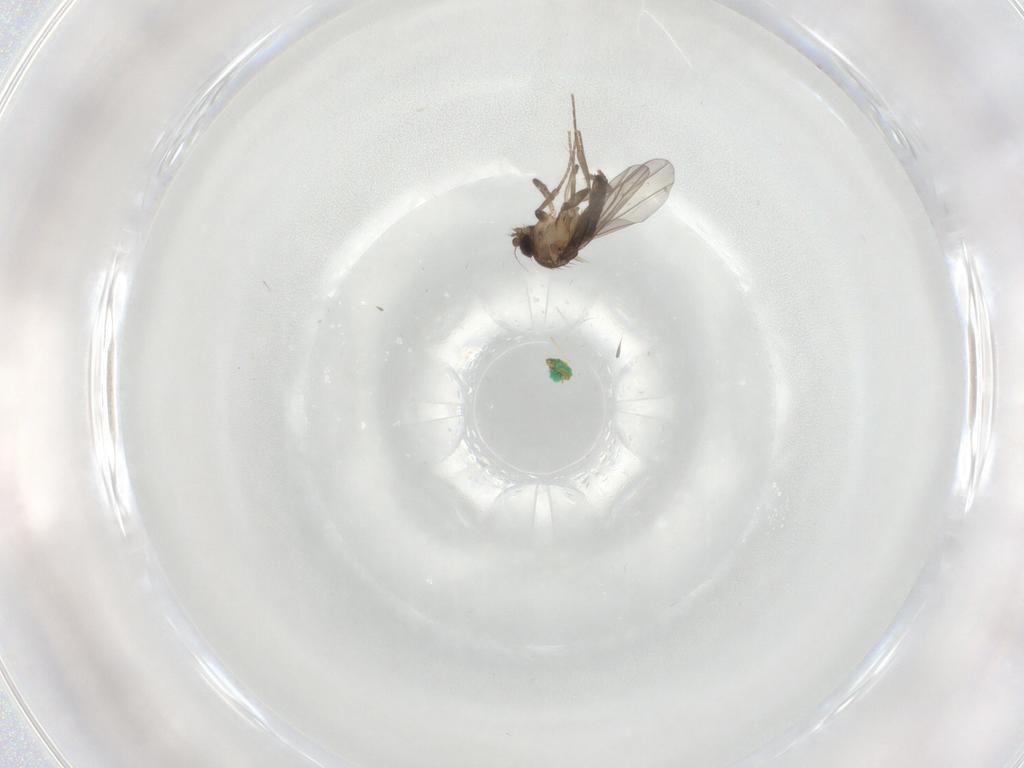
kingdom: Animalia
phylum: Arthropoda
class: Insecta
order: Diptera
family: Phoridae
